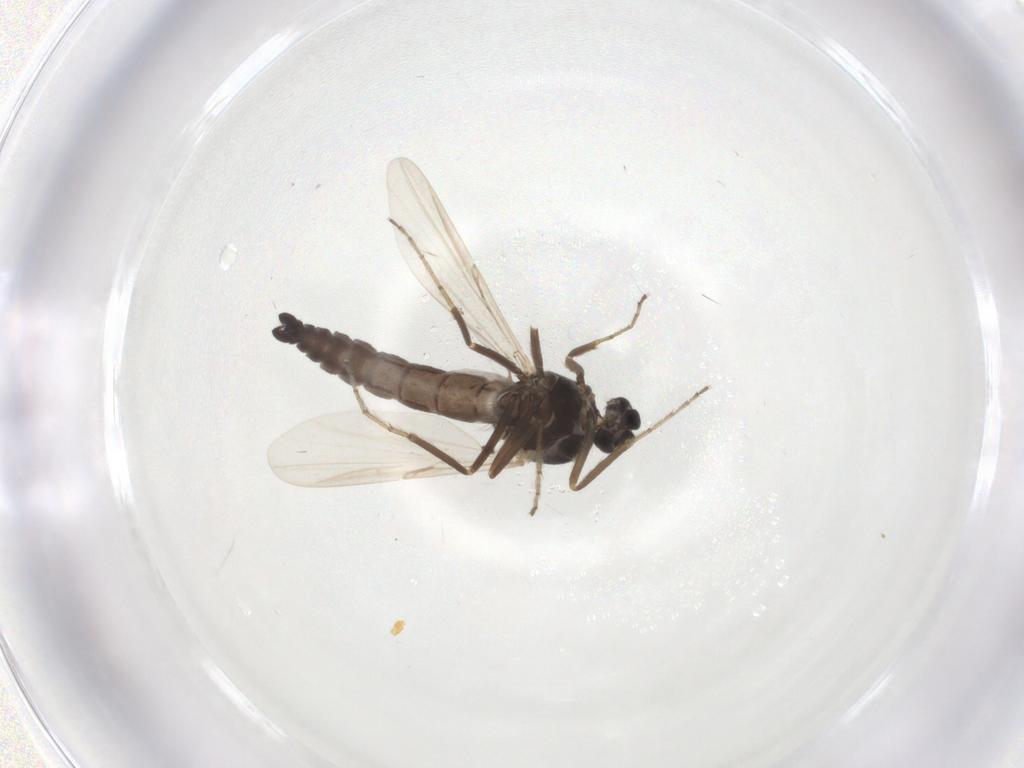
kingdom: Animalia
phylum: Arthropoda
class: Insecta
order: Diptera
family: Ceratopogonidae
